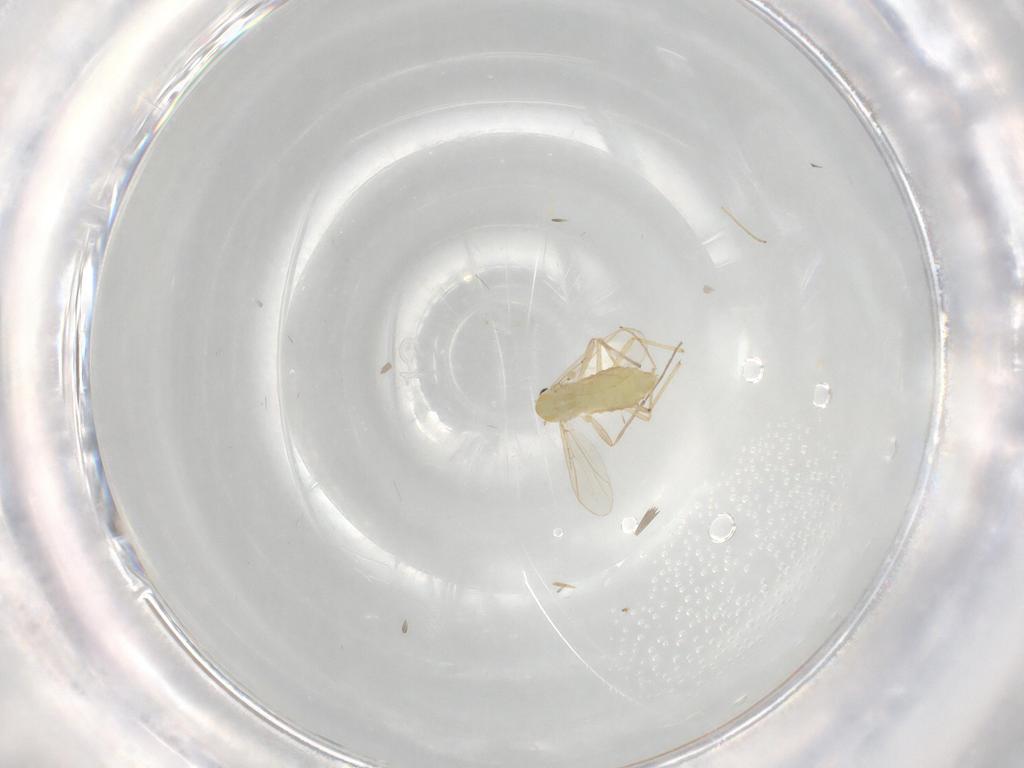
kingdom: Animalia
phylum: Arthropoda
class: Insecta
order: Diptera
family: Chironomidae
